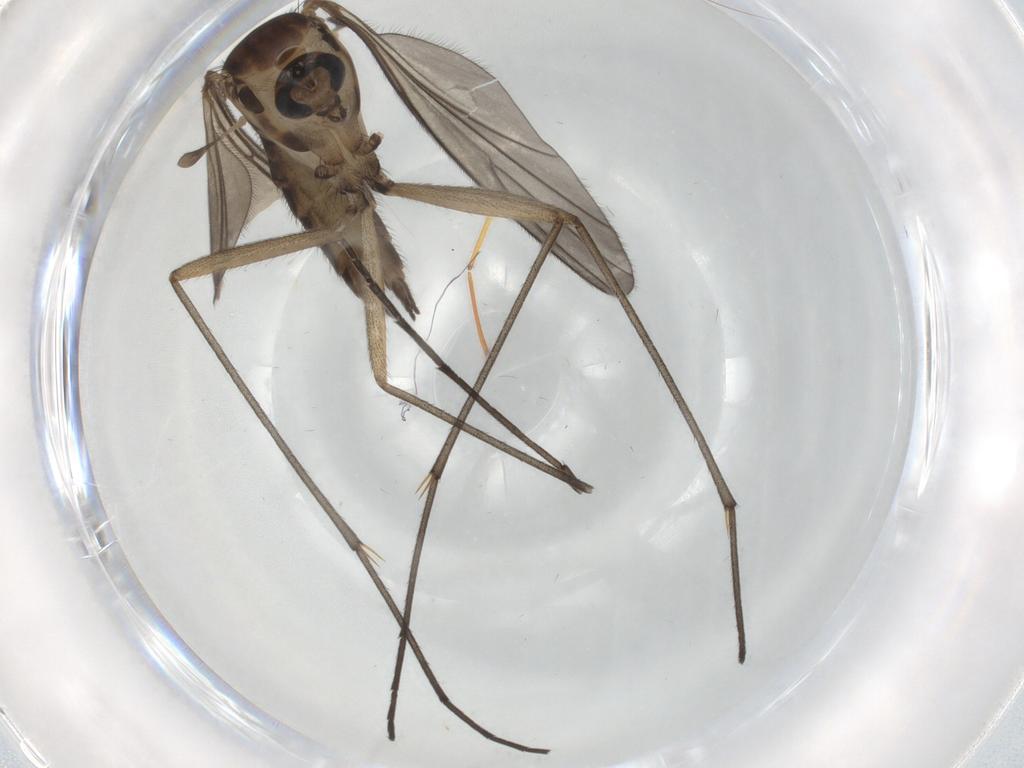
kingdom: Animalia
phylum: Arthropoda
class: Insecta
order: Diptera
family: Sciaridae
